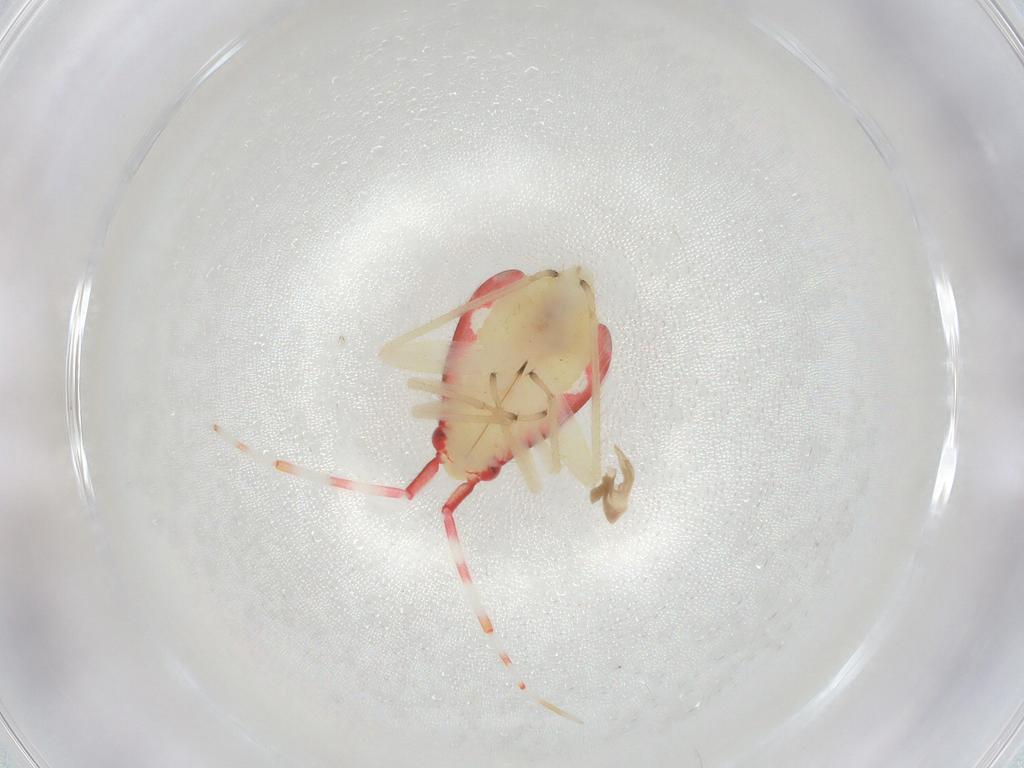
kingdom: Animalia
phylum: Arthropoda
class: Insecta
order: Hemiptera
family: Miridae
